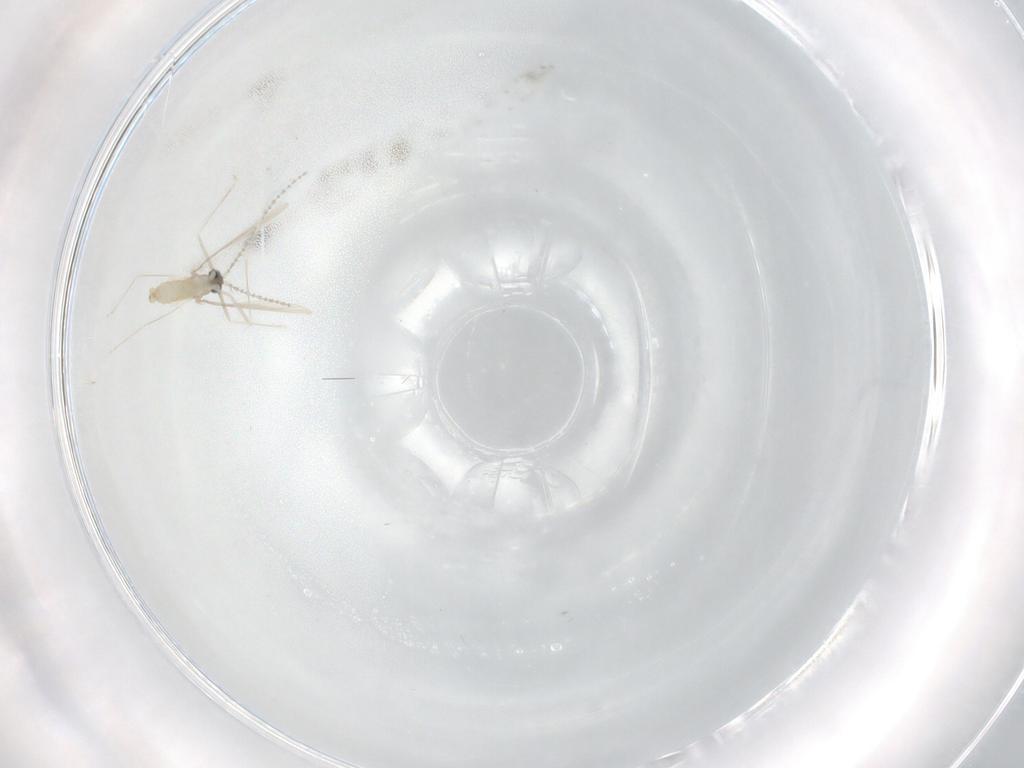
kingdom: Animalia
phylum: Arthropoda
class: Insecta
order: Diptera
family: Cecidomyiidae
